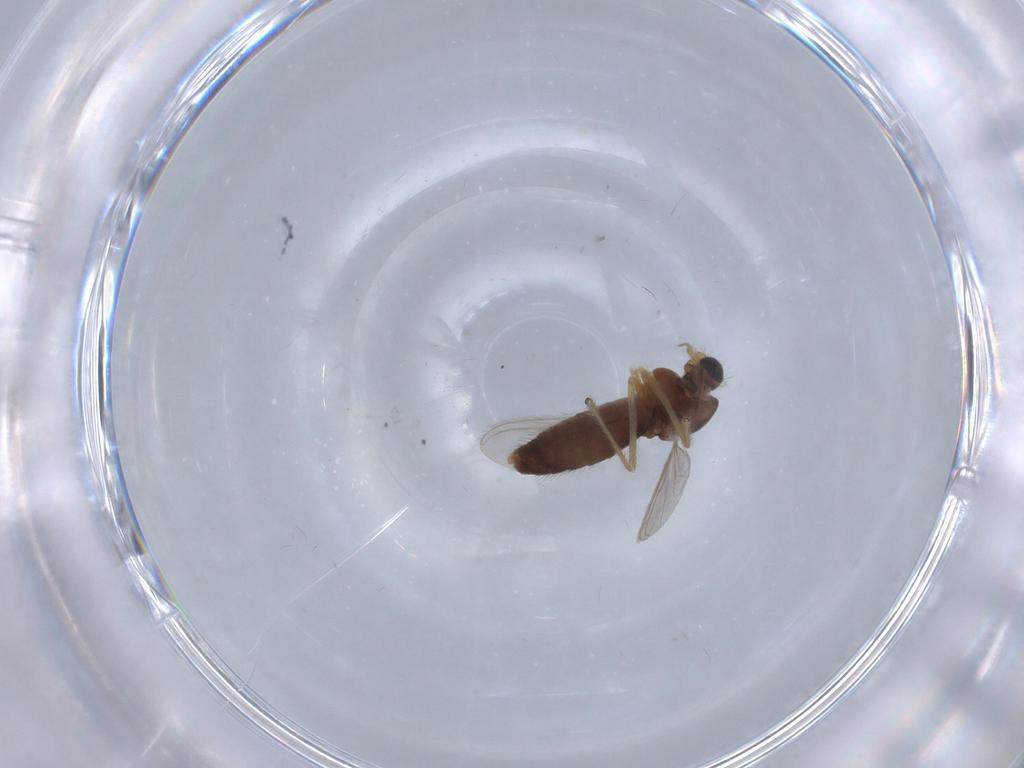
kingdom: Animalia
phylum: Arthropoda
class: Insecta
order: Diptera
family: Chironomidae
